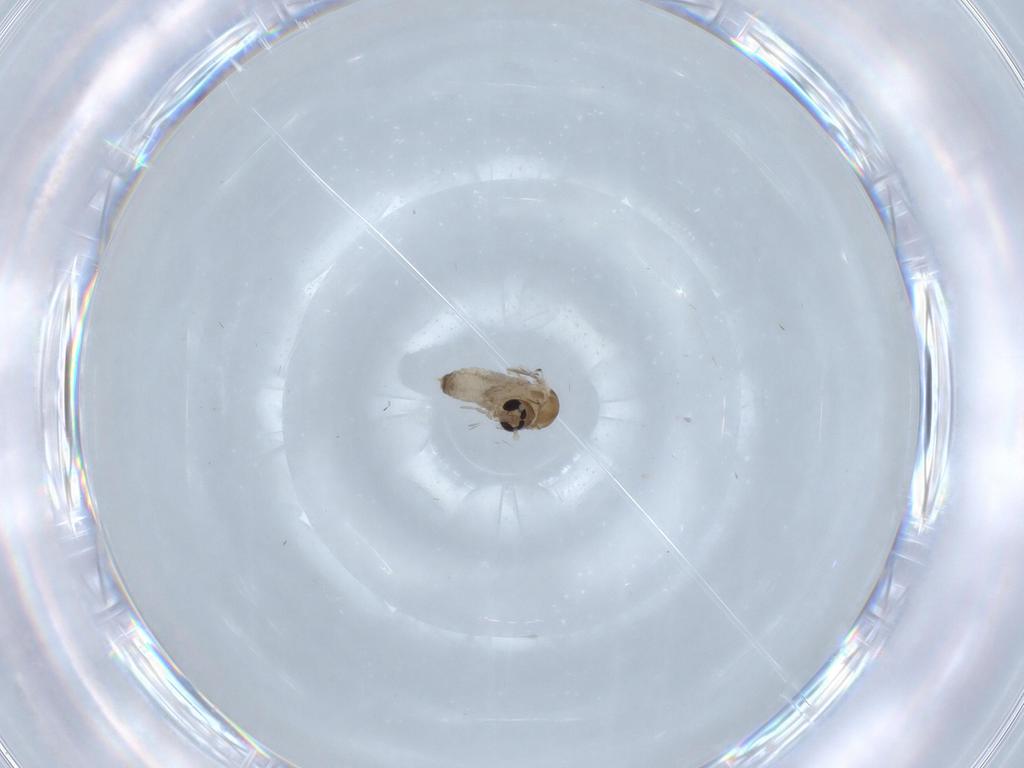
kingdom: Animalia
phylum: Arthropoda
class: Insecta
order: Diptera
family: Psychodidae
